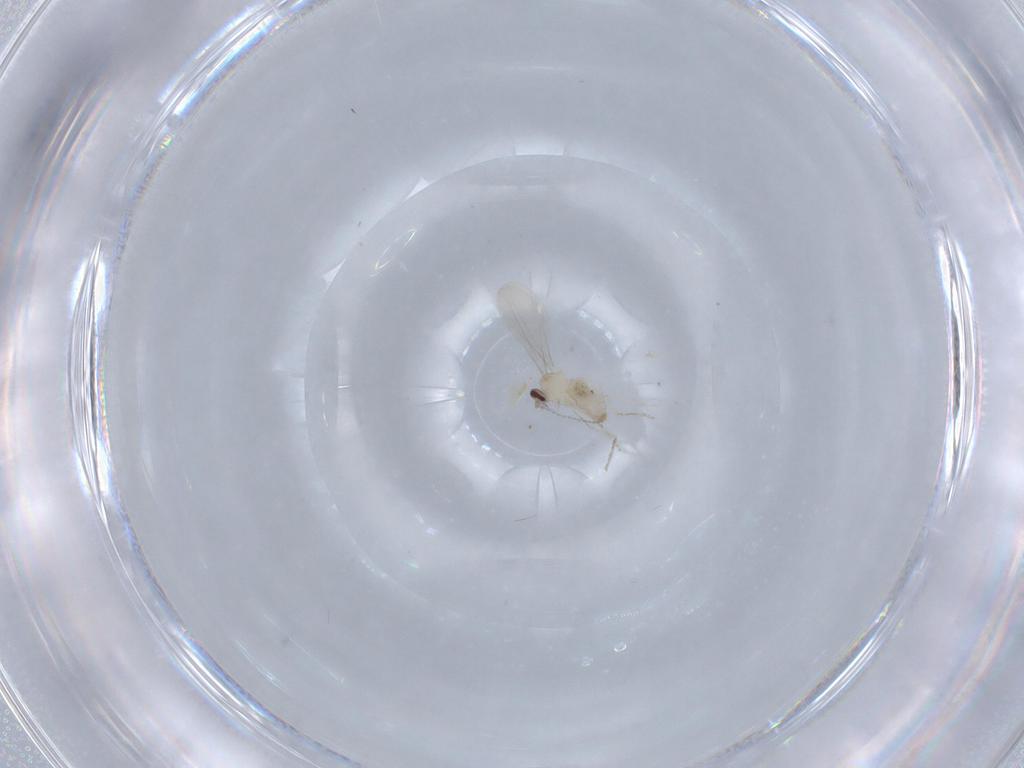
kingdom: Animalia
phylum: Arthropoda
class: Insecta
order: Diptera
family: Cecidomyiidae
